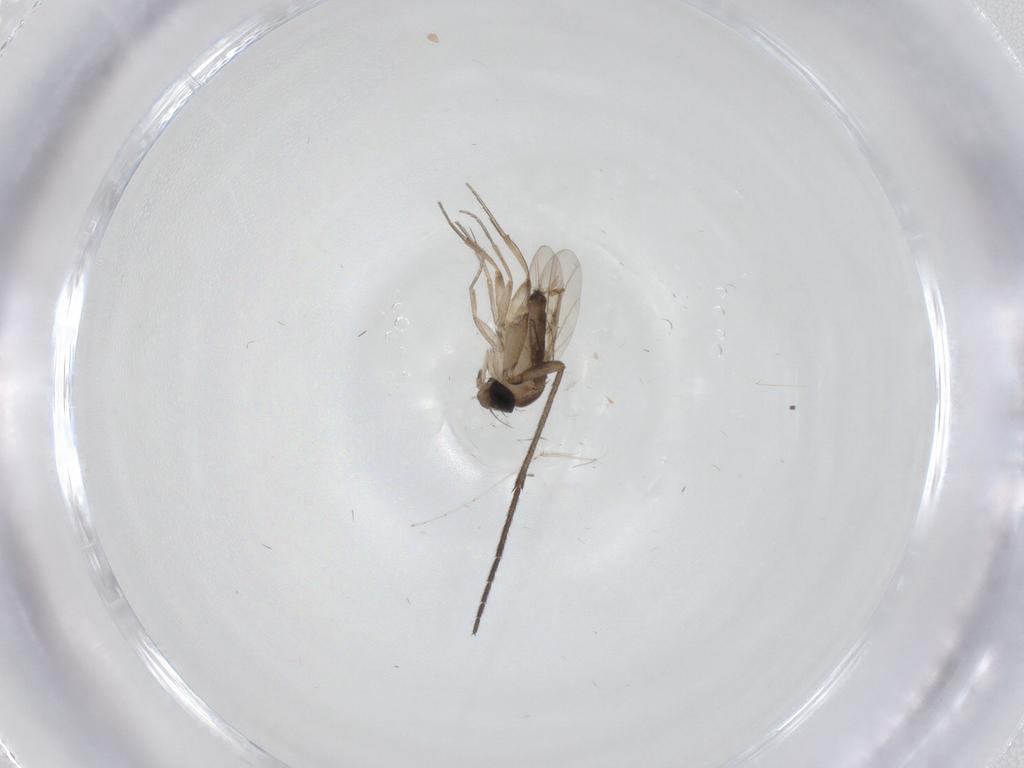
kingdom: Animalia
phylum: Arthropoda
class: Insecta
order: Diptera
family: Sciaridae
